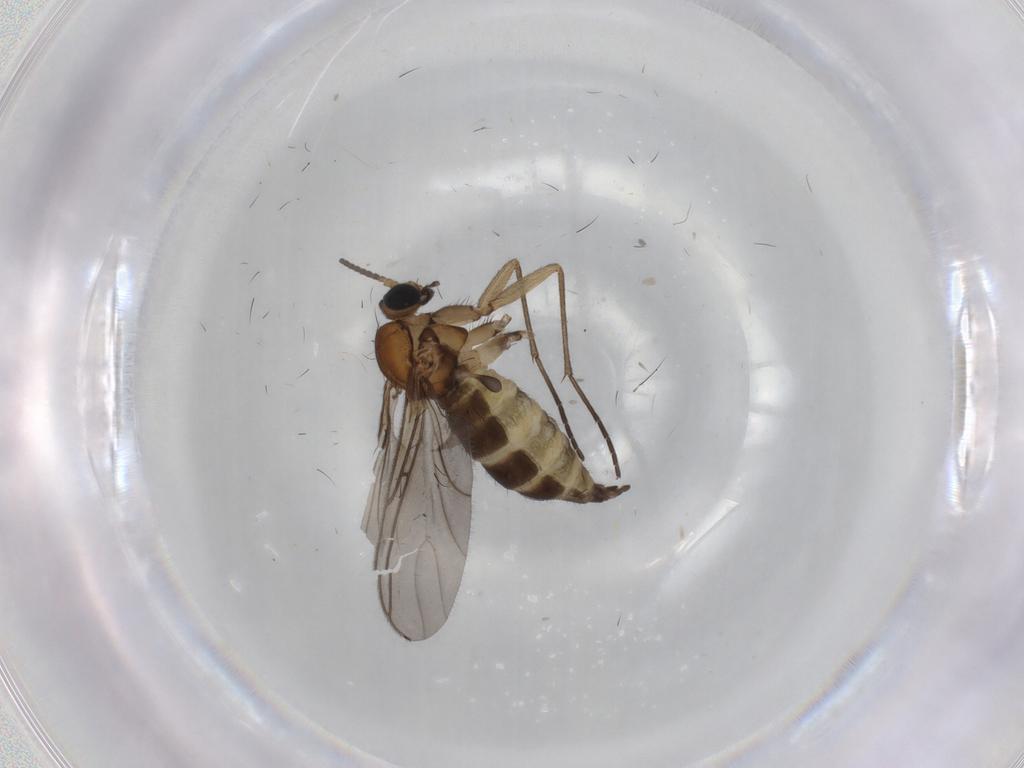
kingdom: Animalia
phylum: Arthropoda
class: Insecta
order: Diptera
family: Sciaridae
